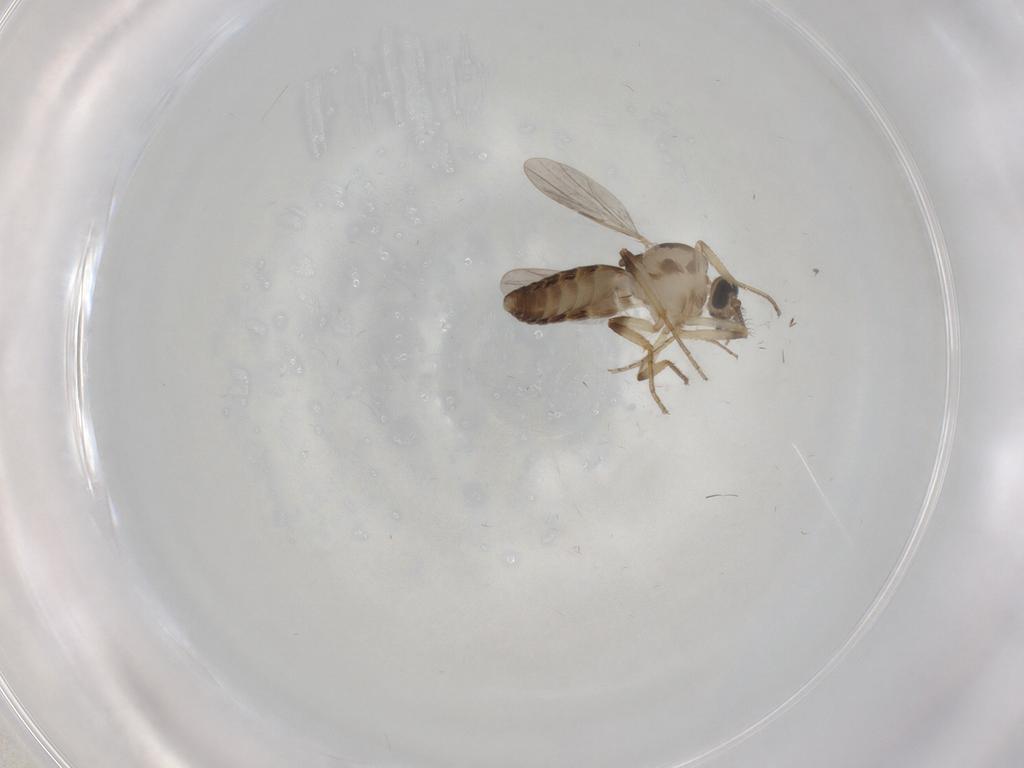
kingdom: Animalia
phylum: Arthropoda
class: Insecta
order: Diptera
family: Ceratopogonidae
